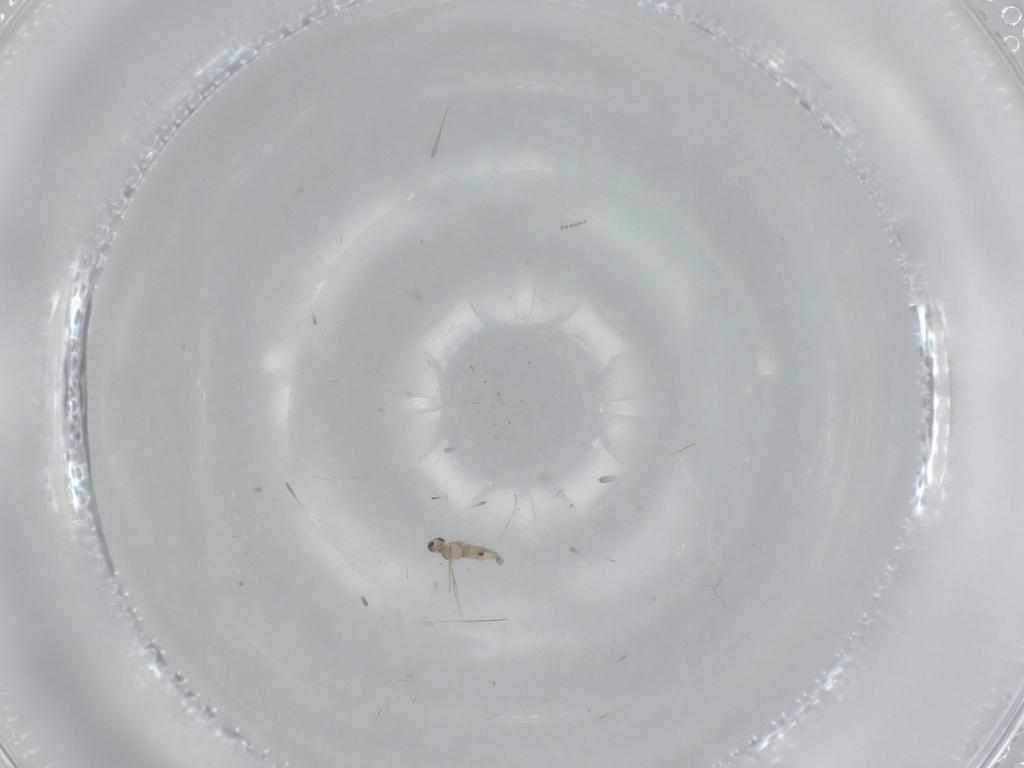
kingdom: Animalia
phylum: Arthropoda
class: Insecta
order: Diptera
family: Cecidomyiidae
